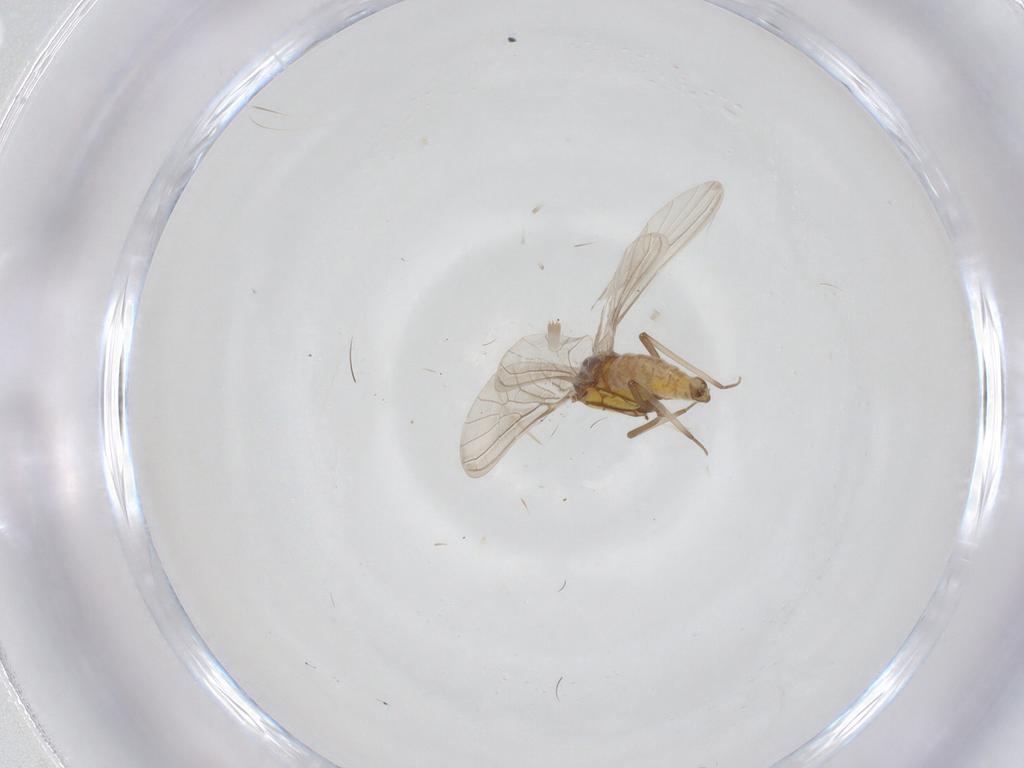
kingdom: Animalia
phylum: Arthropoda
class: Insecta
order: Neuroptera
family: Coniopterygidae
